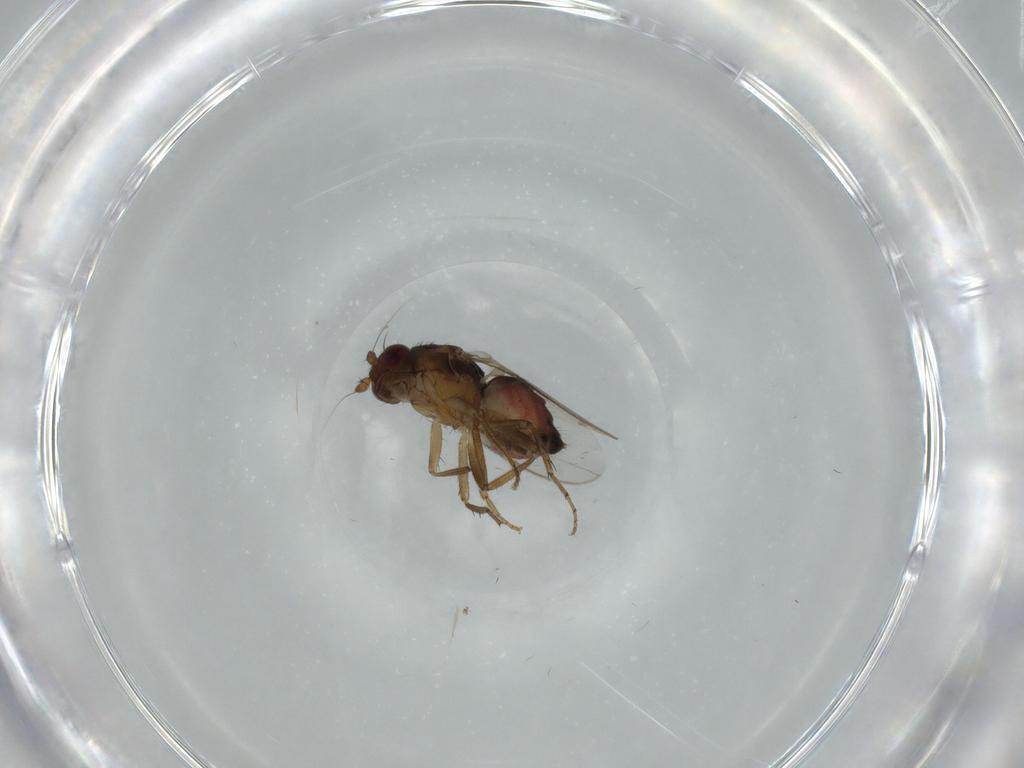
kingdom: Animalia
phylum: Arthropoda
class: Insecta
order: Diptera
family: Sphaeroceridae
